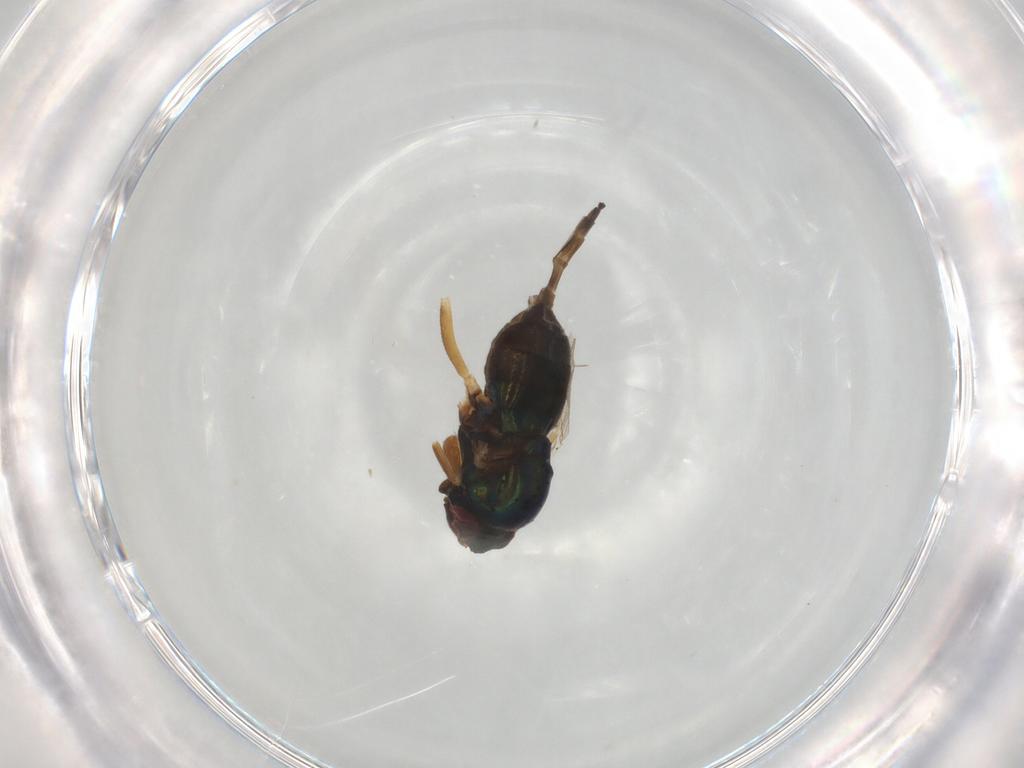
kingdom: Animalia
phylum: Arthropoda
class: Insecta
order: Diptera
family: Dolichopodidae
